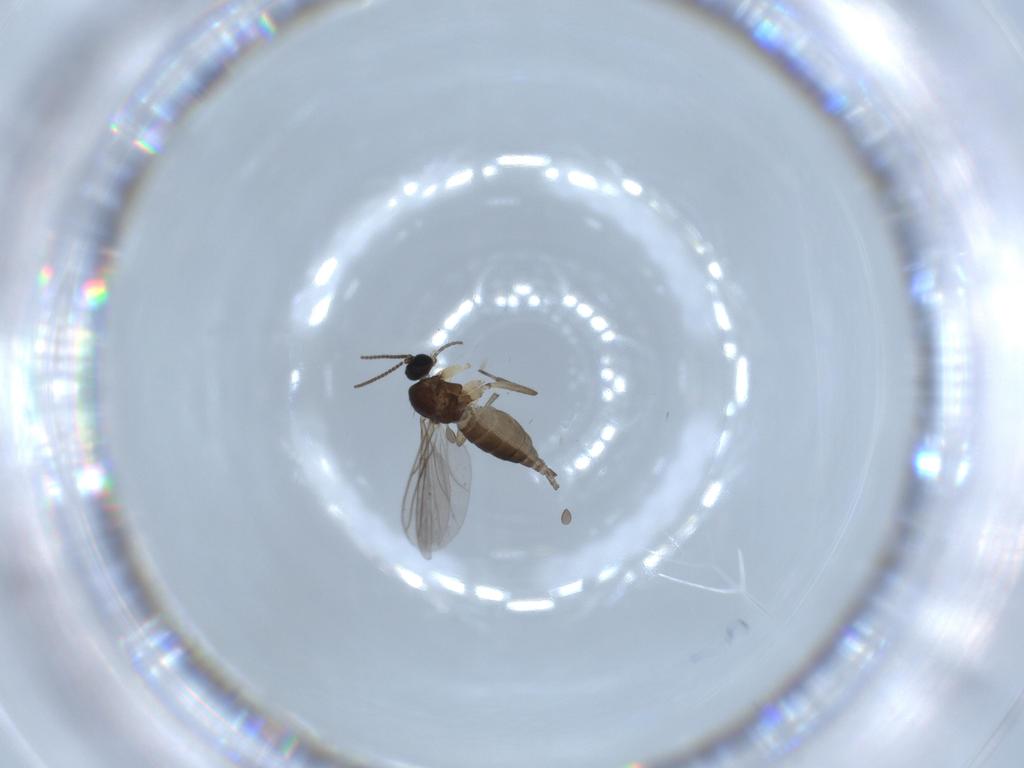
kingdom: Animalia
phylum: Arthropoda
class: Insecta
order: Diptera
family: Sciaridae
